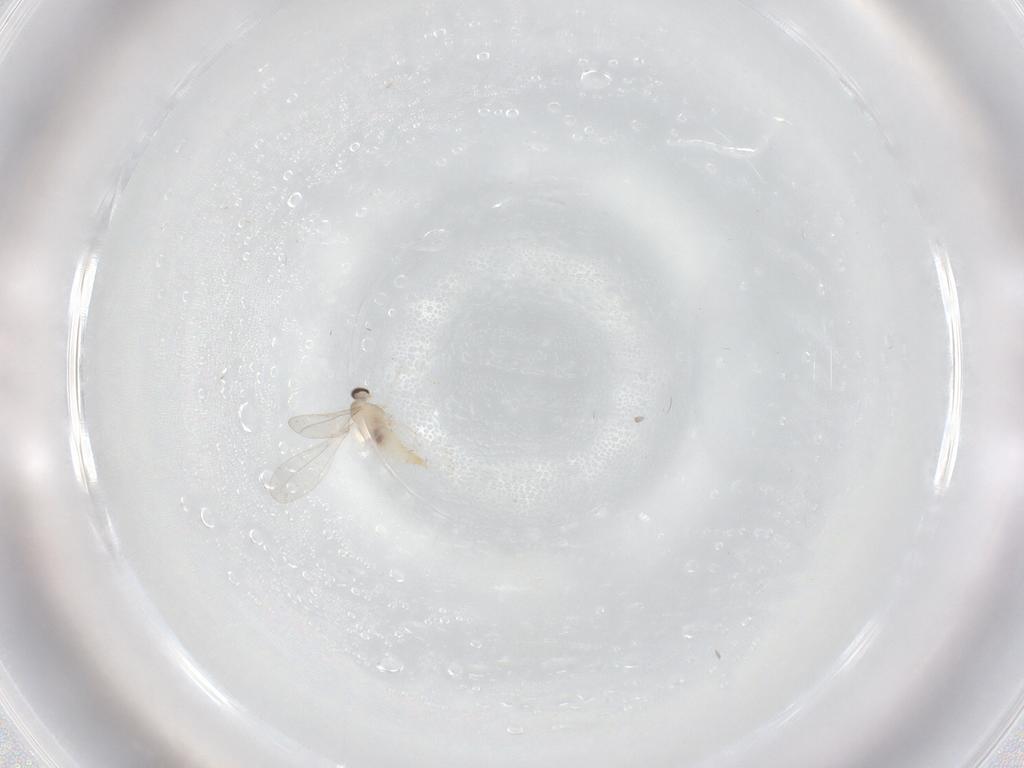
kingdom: Animalia
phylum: Arthropoda
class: Insecta
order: Diptera
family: Cecidomyiidae
